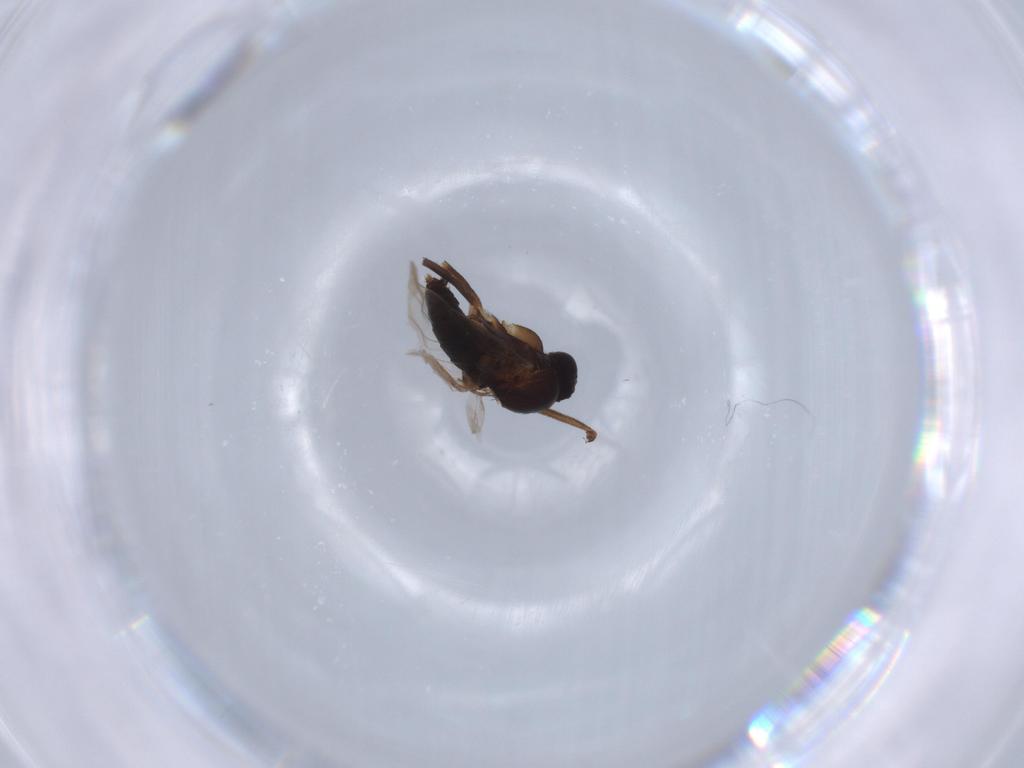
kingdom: Animalia
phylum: Arthropoda
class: Insecta
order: Diptera
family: Phoridae
